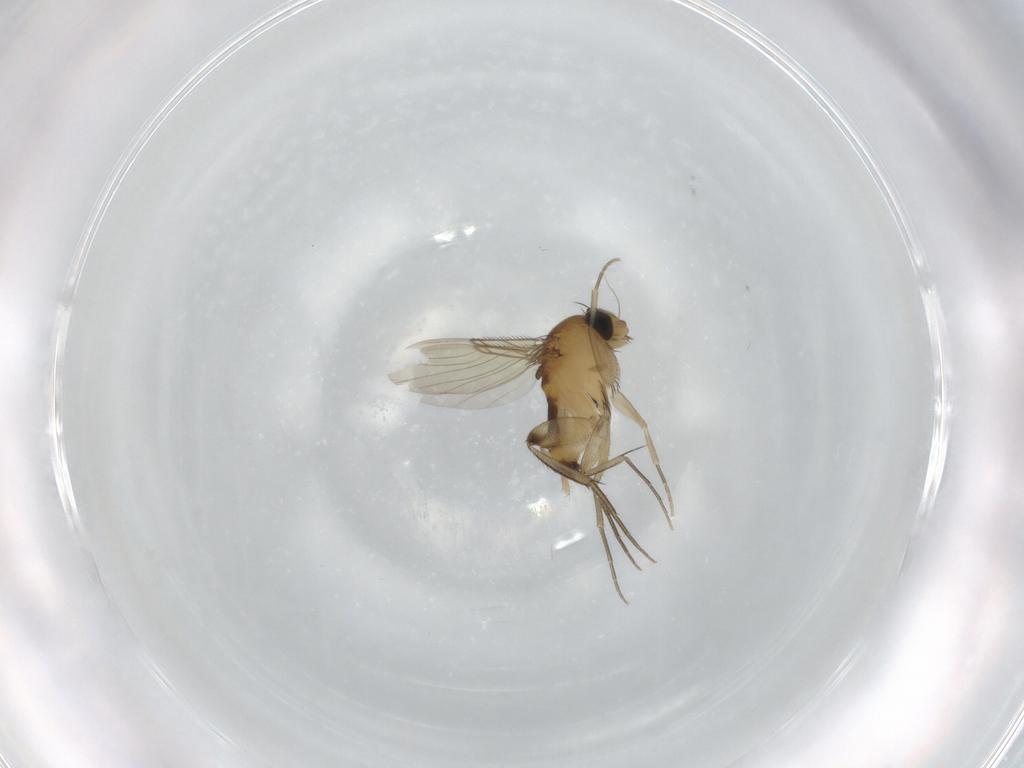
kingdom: Animalia
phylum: Arthropoda
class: Insecta
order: Diptera
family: Phoridae
